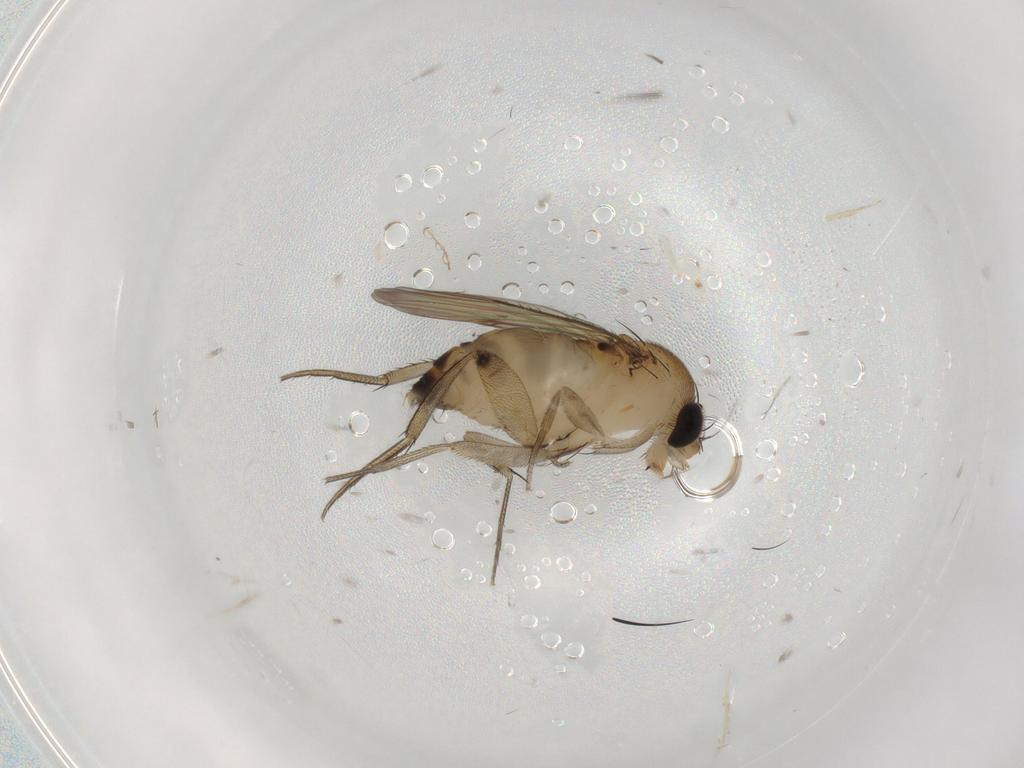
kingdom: Animalia
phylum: Arthropoda
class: Insecta
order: Diptera
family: Phoridae
